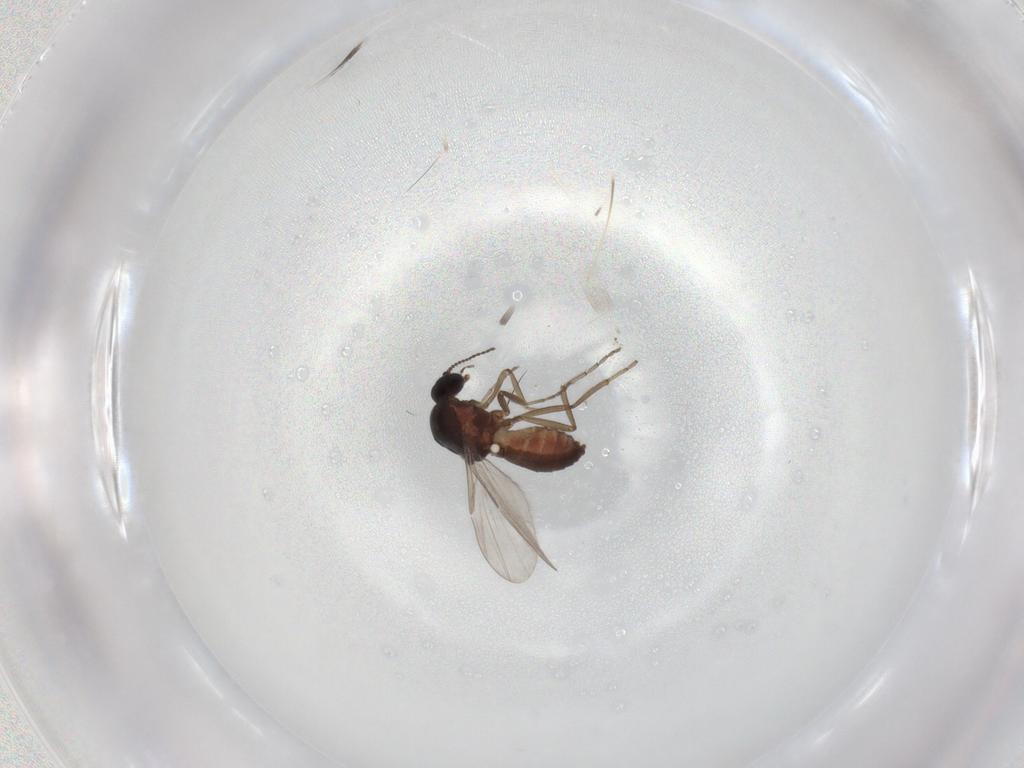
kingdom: Animalia
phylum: Arthropoda
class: Insecta
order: Diptera
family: Ceratopogonidae
